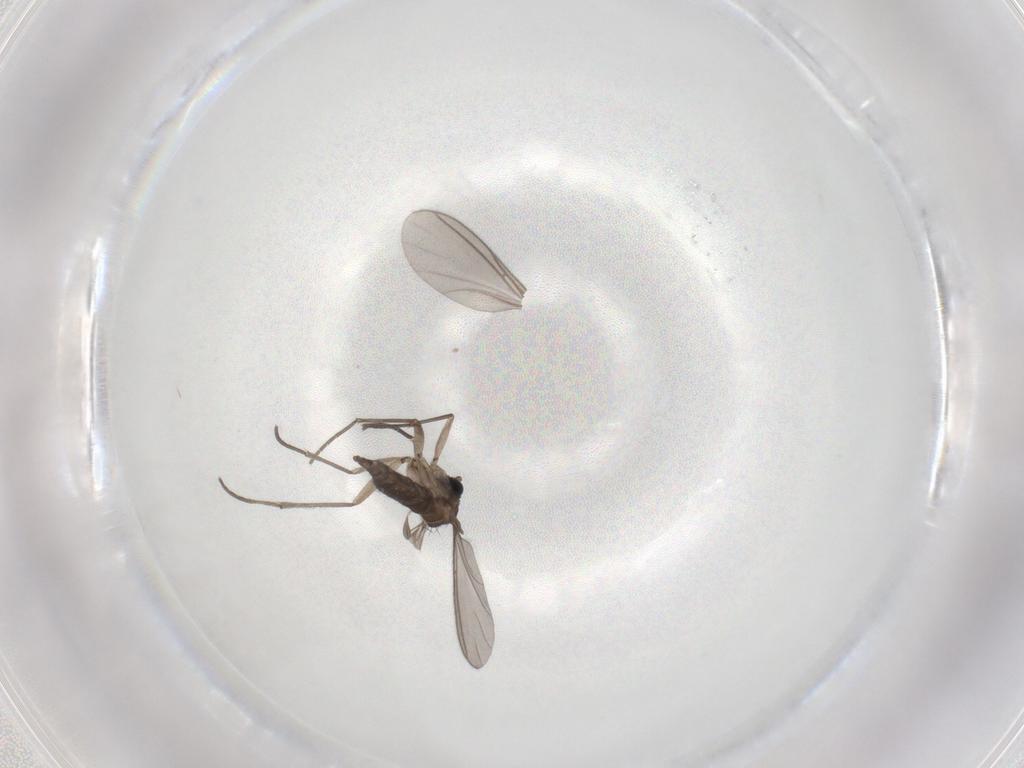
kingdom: Animalia
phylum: Arthropoda
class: Insecta
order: Diptera
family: Sciaridae
